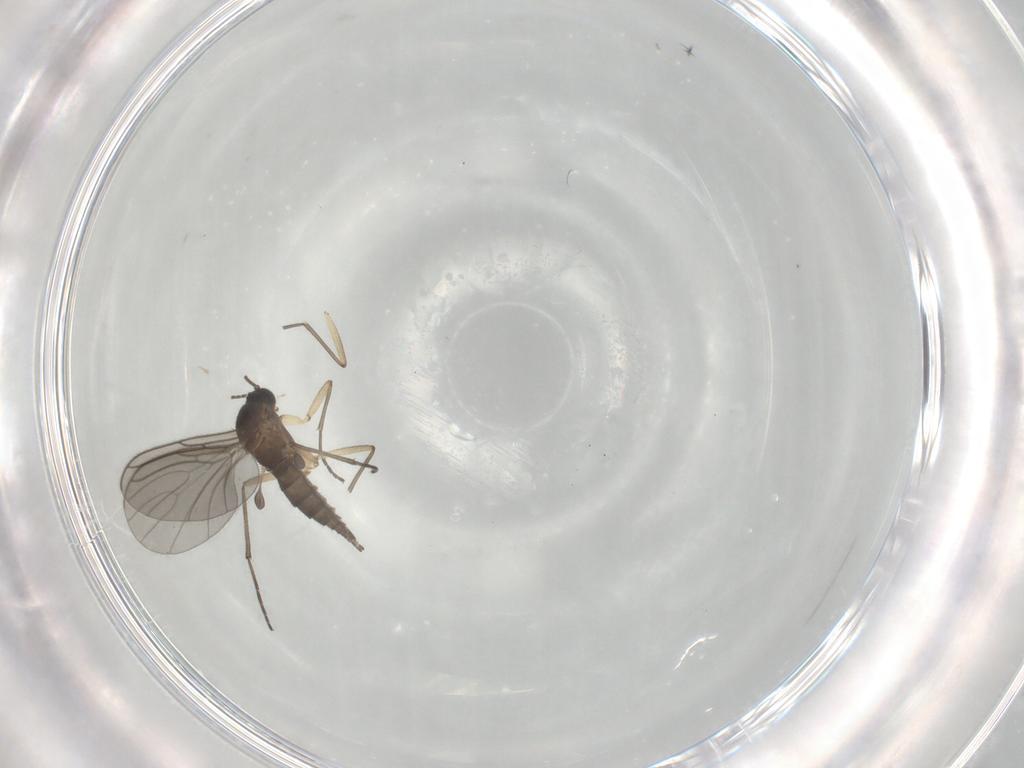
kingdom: Animalia
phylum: Arthropoda
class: Insecta
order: Diptera
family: Sciaridae
